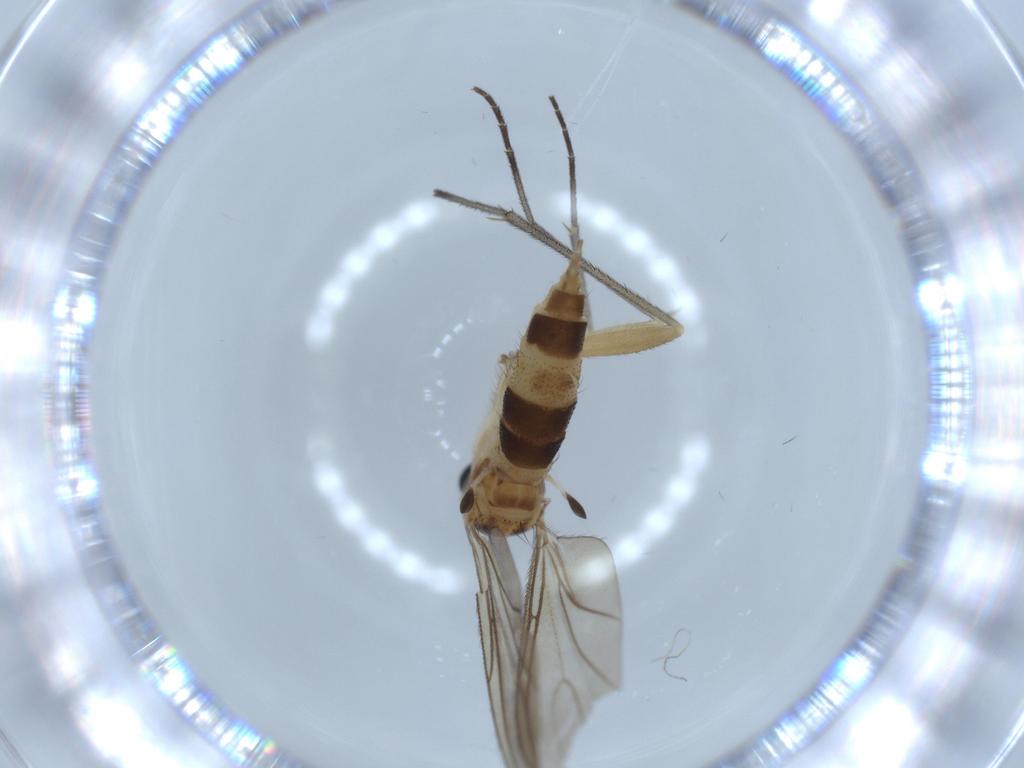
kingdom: Animalia
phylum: Arthropoda
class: Insecta
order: Diptera
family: Sciaridae
